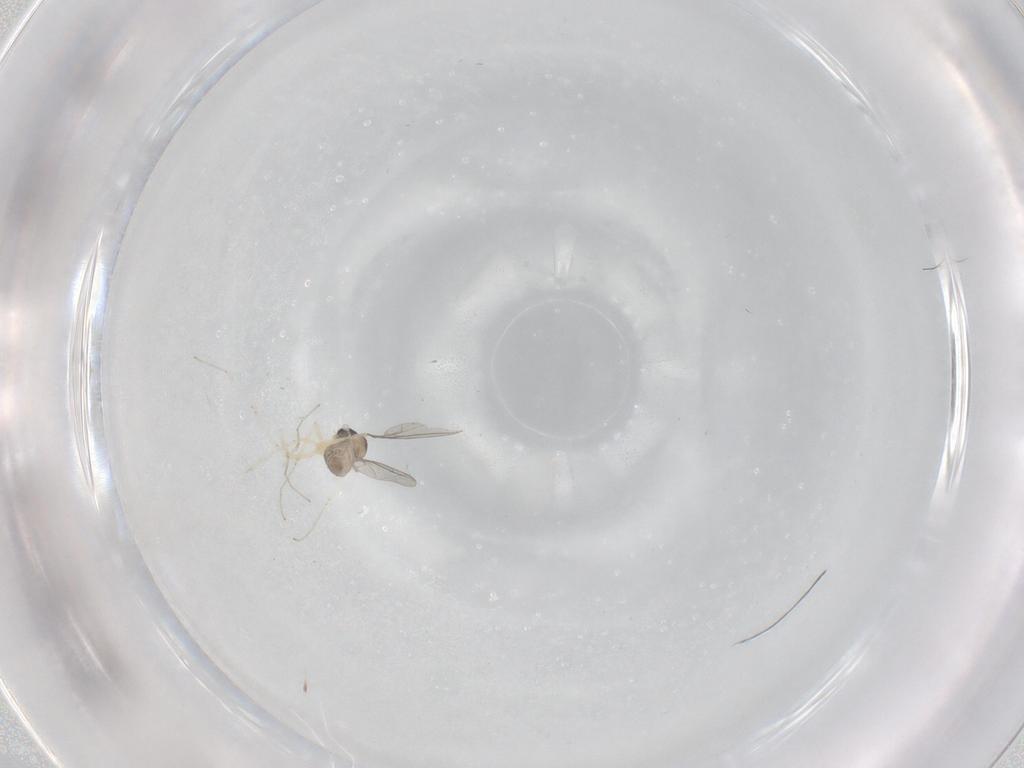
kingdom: Animalia
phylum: Arthropoda
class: Insecta
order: Diptera
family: Cecidomyiidae
